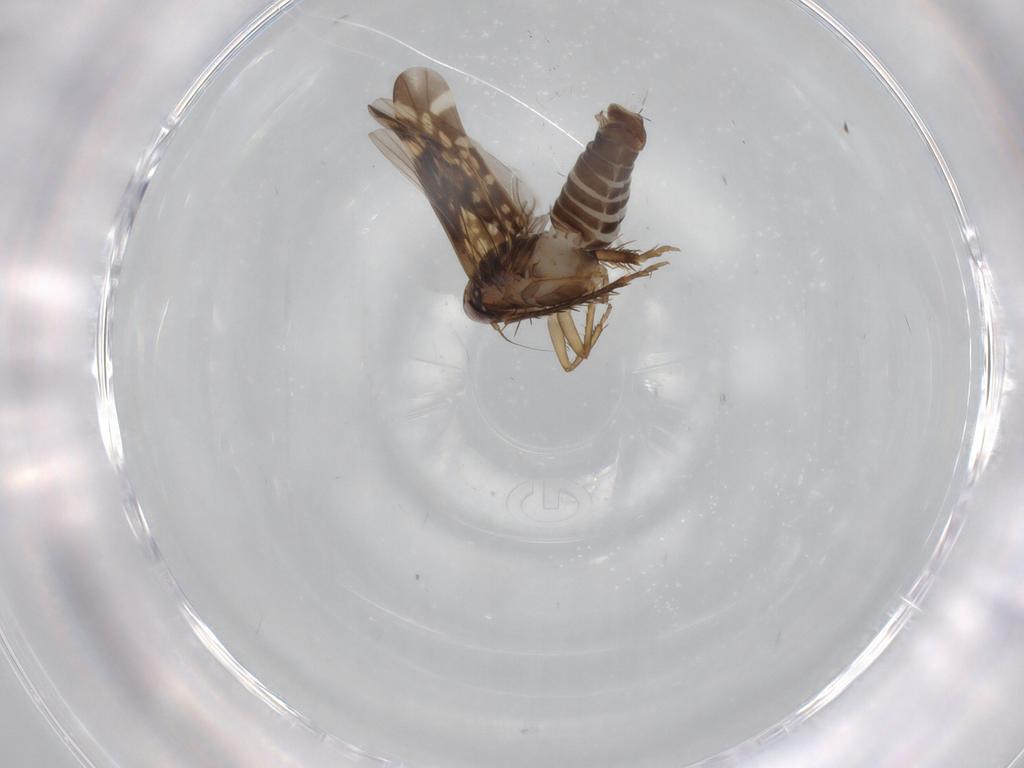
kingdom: Animalia
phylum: Arthropoda
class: Insecta
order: Hemiptera
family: Cicadellidae
